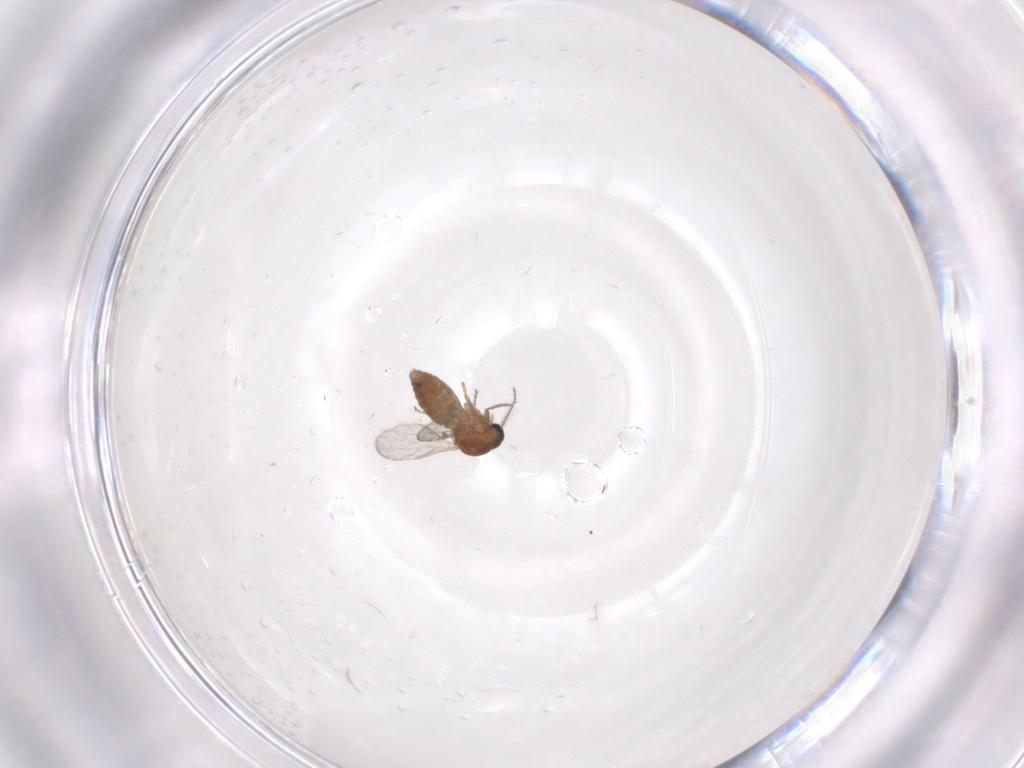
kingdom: Animalia
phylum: Arthropoda
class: Insecta
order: Diptera
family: Ceratopogonidae
